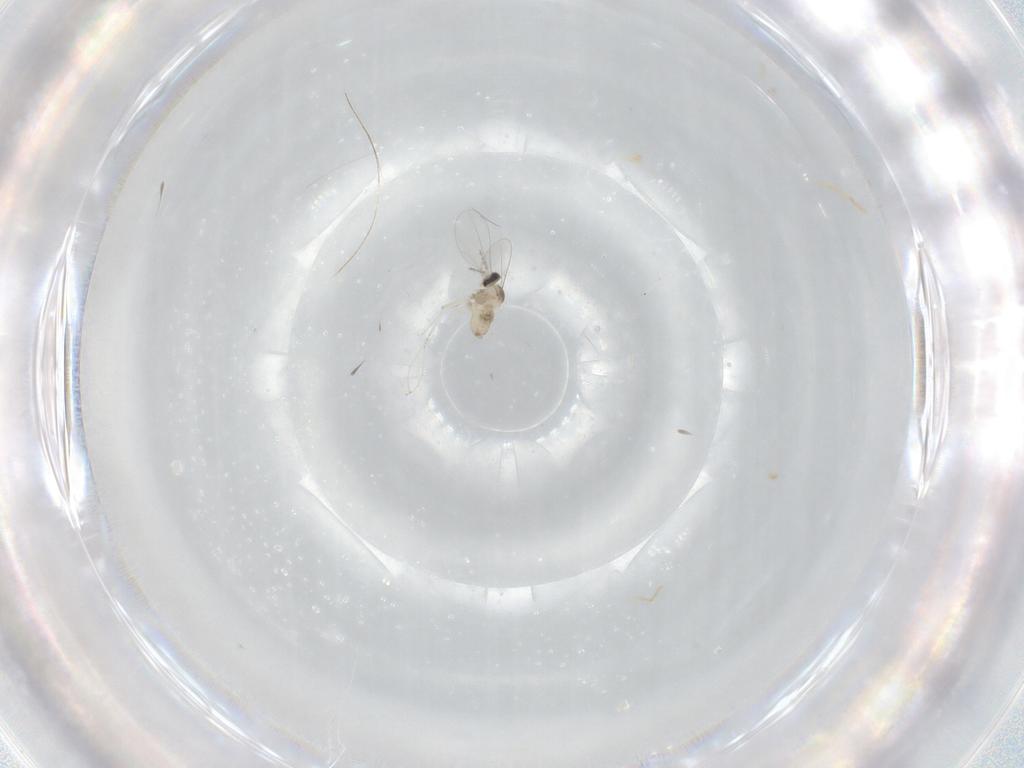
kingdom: Animalia
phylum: Arthropoda
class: Insecta
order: Diptera
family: Cecidomyiidae
